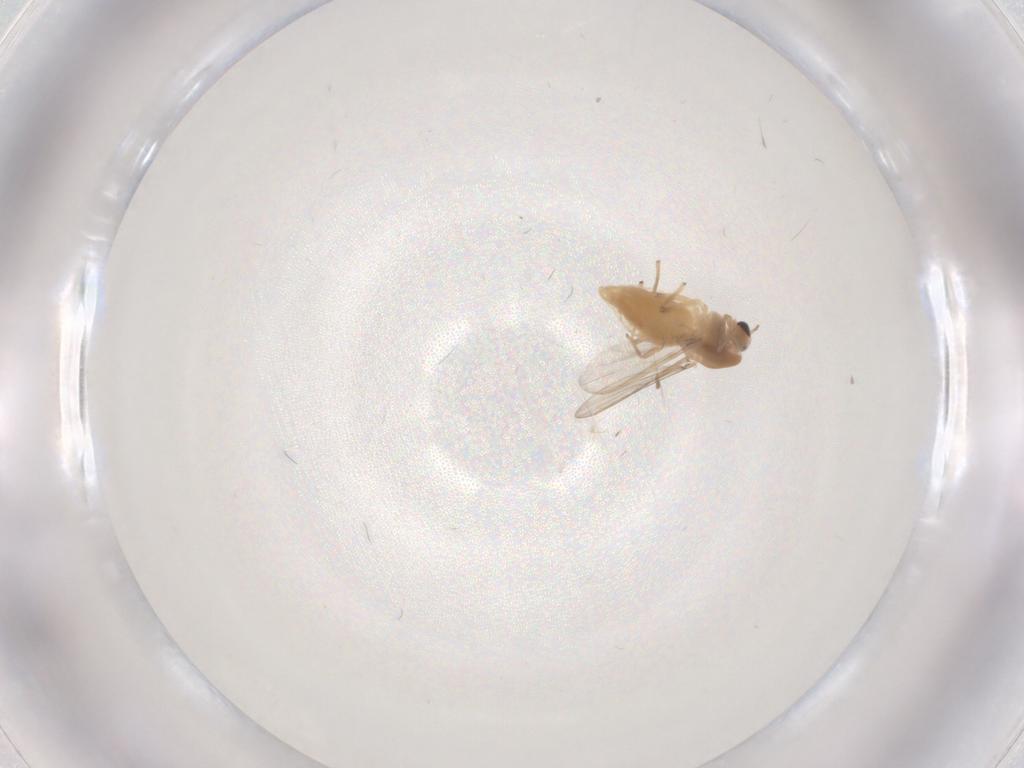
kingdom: Animalia
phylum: Arthropoda
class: Insecta
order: Diptera
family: Chironomidae
